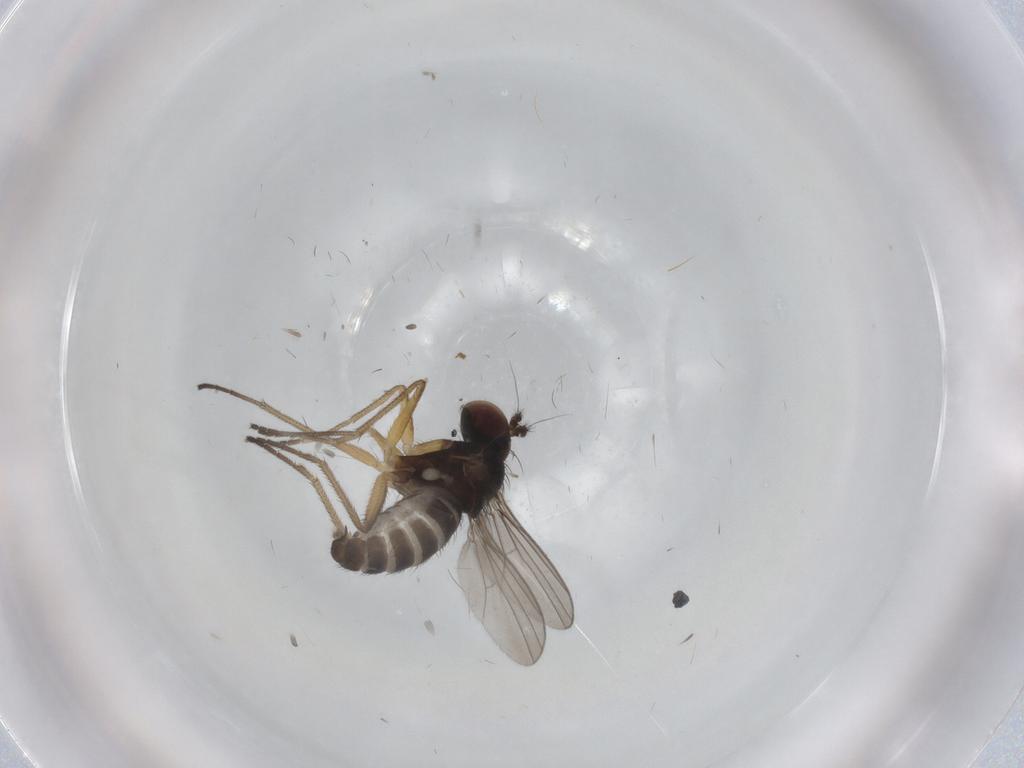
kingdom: Animalia
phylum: Arthropoda
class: Insecta
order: Diptera
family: Dolichopodidae
